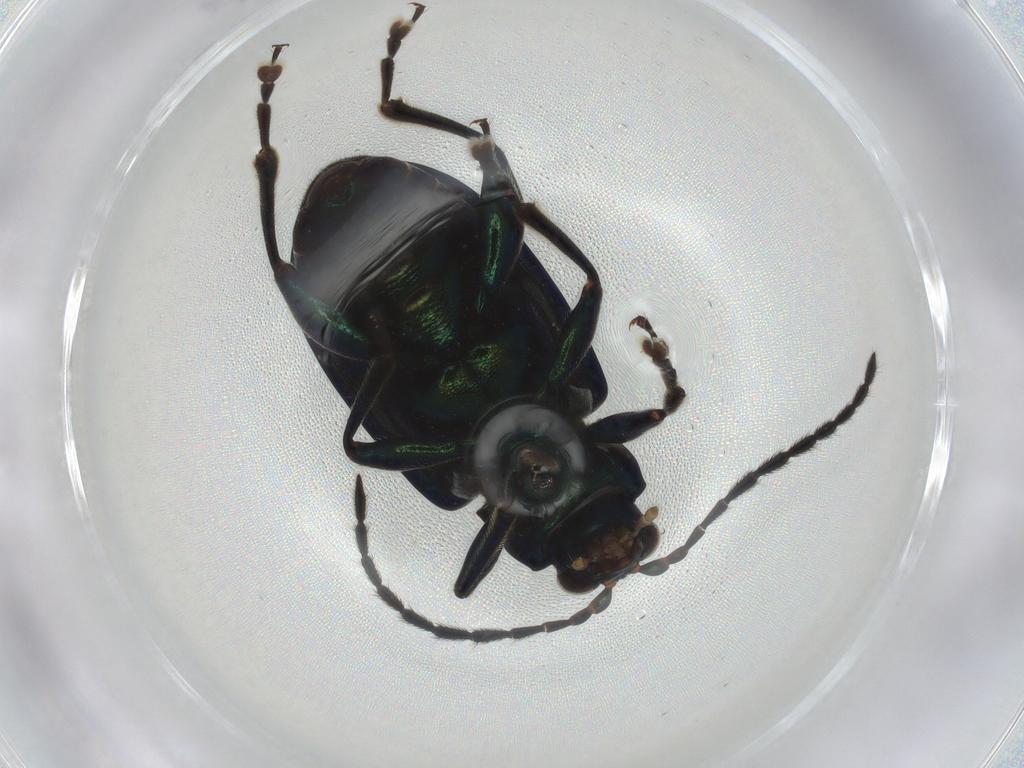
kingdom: Animalia
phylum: Arthropoda
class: Insecta
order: Coleoptera
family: Chrysomelidae
